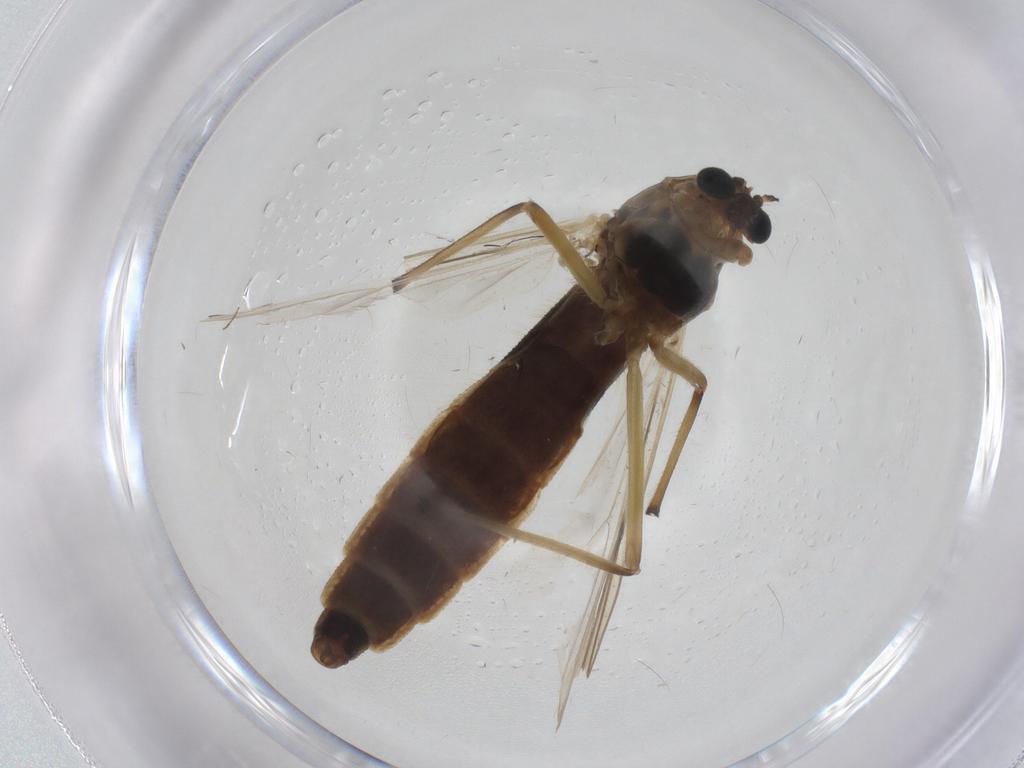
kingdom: Animalia
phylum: Arthropoda
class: Insecta
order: Diptera
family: Chironomidae
